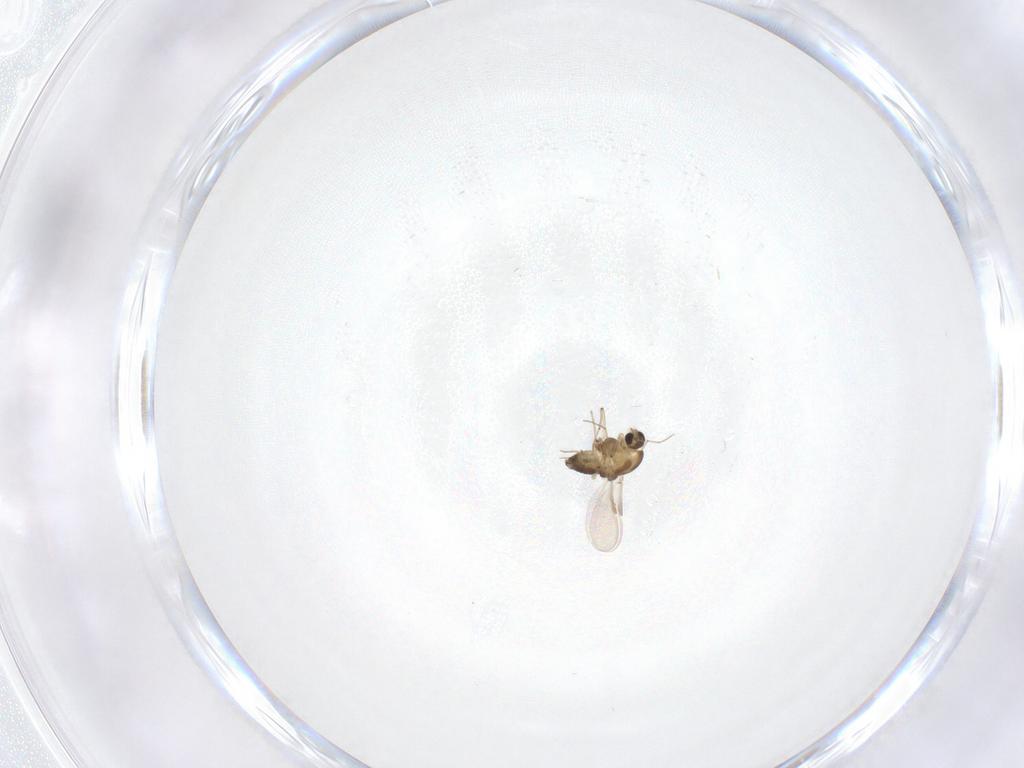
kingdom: Animalia
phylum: Arthropoda
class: Insecta
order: Diptera
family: Chironomidae
